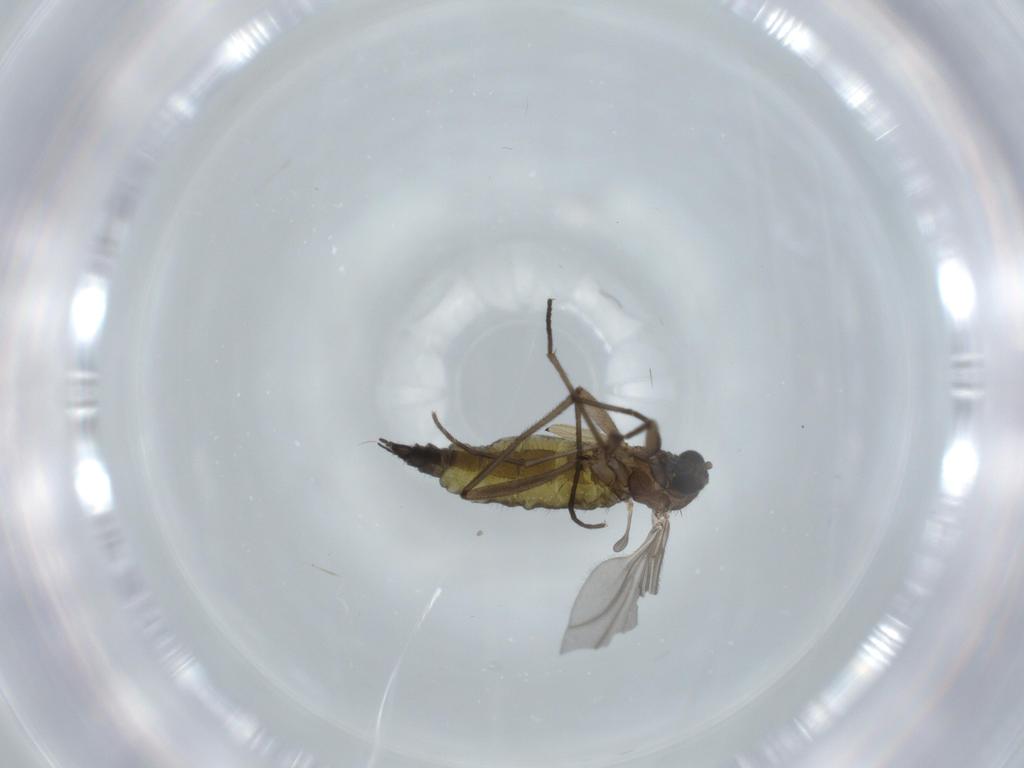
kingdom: Animalia
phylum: Arthropoda
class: Insecta
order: Diptera
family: Sciaridae
